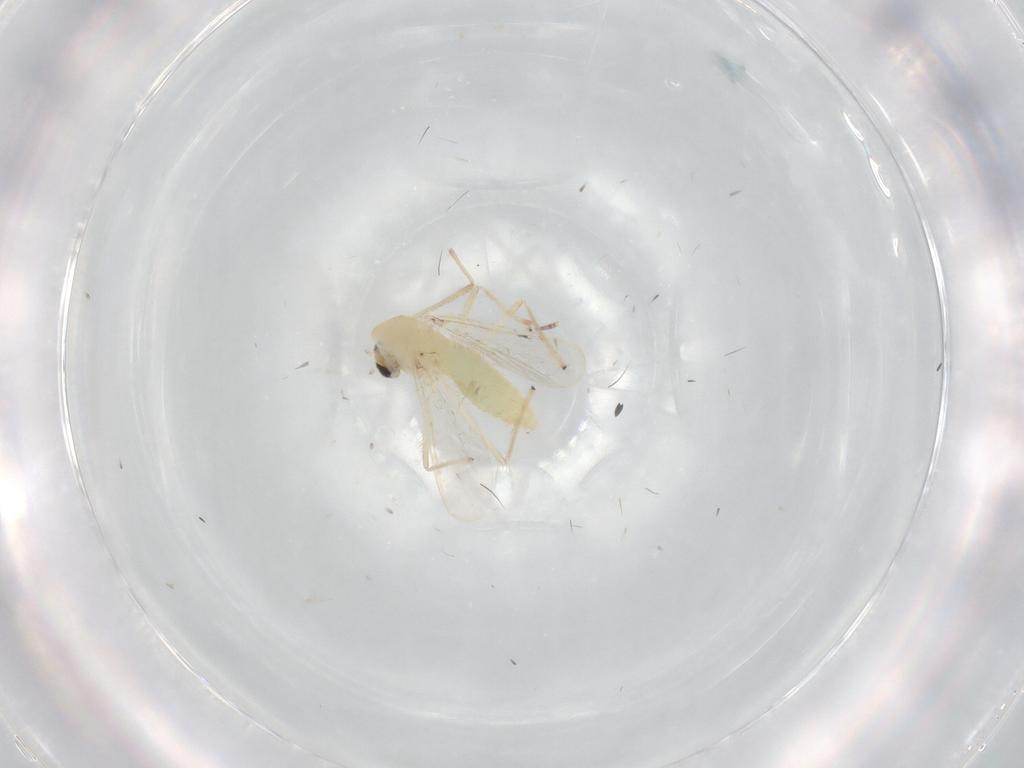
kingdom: Animalia
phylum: Arthropoda
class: Insecta
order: Diptera
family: Chironomidae
